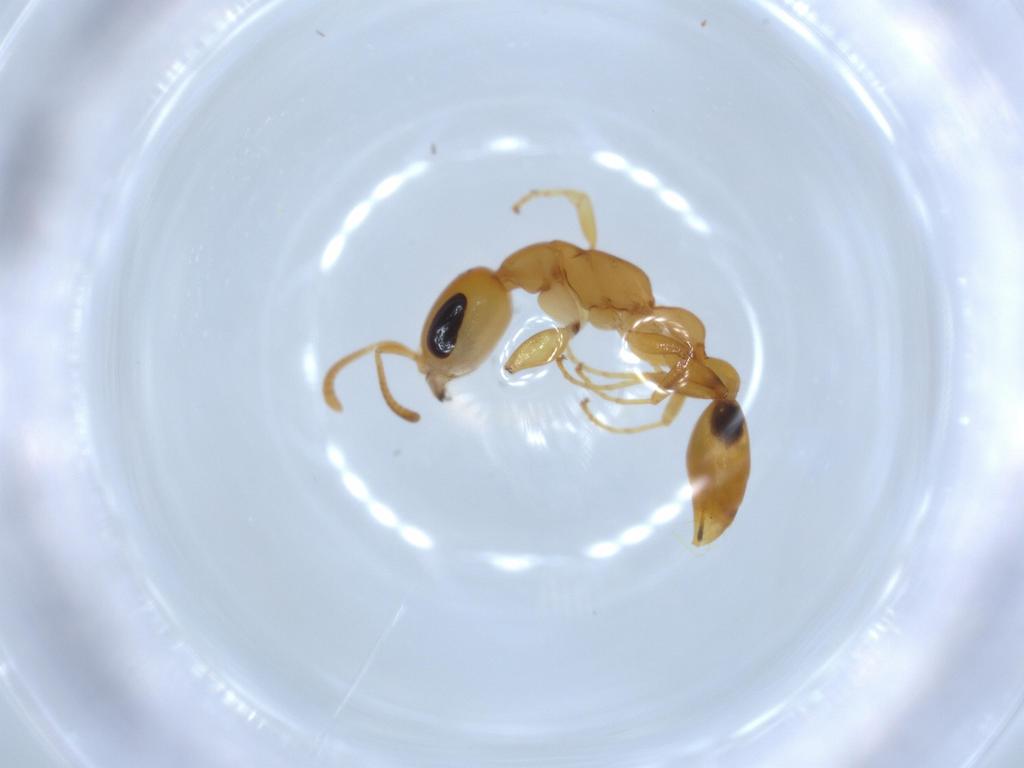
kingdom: Animalia
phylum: Arthropoda
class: Insecta
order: Hymenoptera
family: Formicidae
